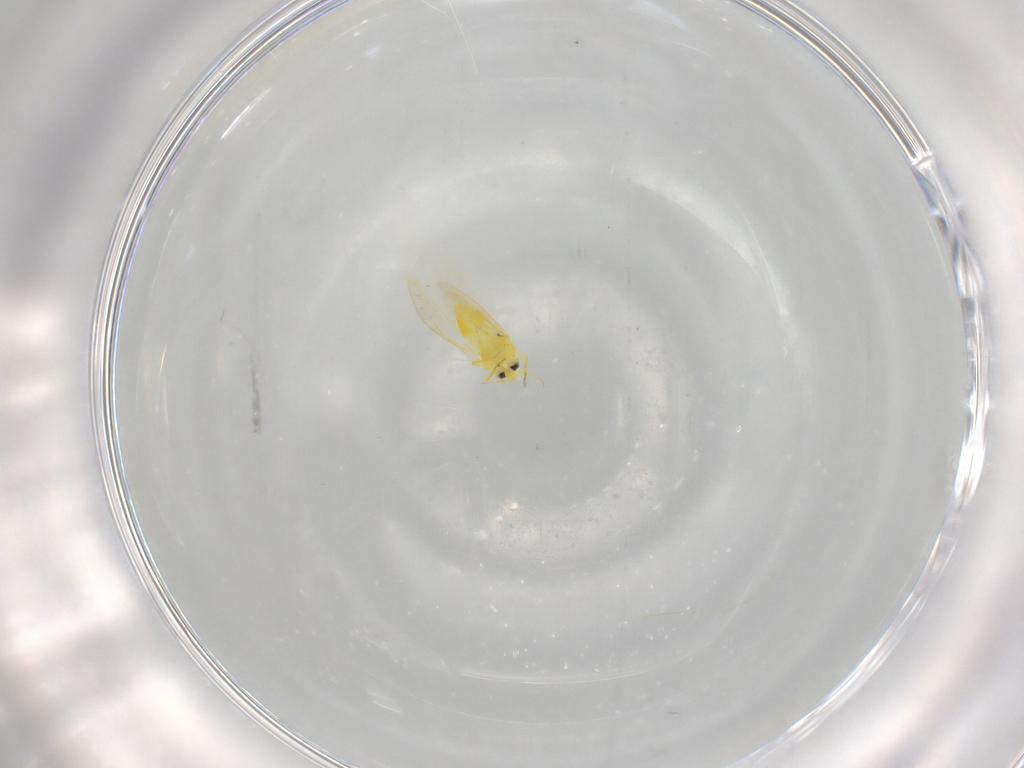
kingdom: Animalia
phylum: Arthropoda
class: Insecta
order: Hemiptera
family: Aleyrodidae
